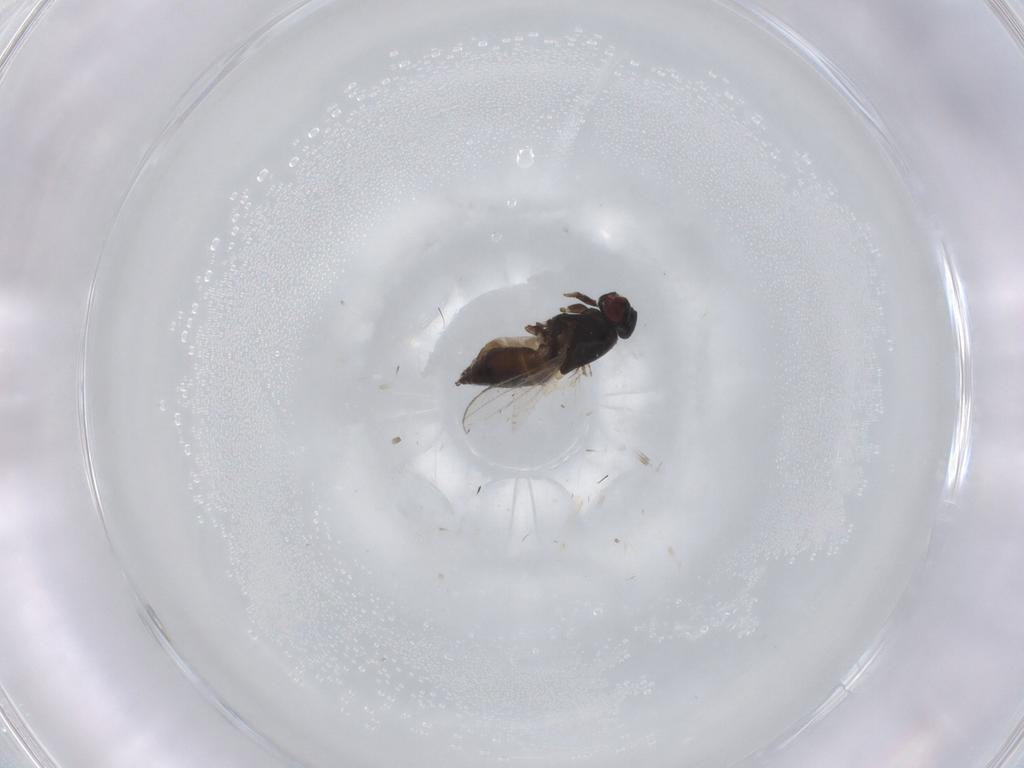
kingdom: Animalia
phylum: Arthropoda
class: Insecta
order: Diptera
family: Milichiidae
